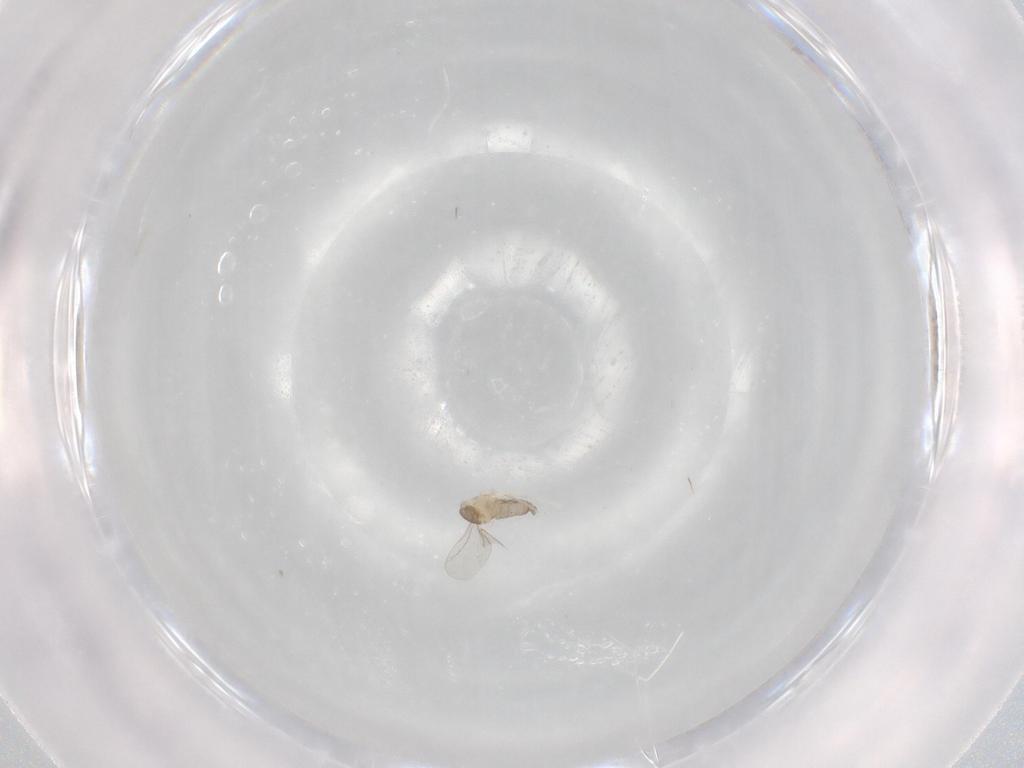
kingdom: Animalia
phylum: Arthropoda
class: Insecta
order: Diptera
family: Cecidomyiidae
